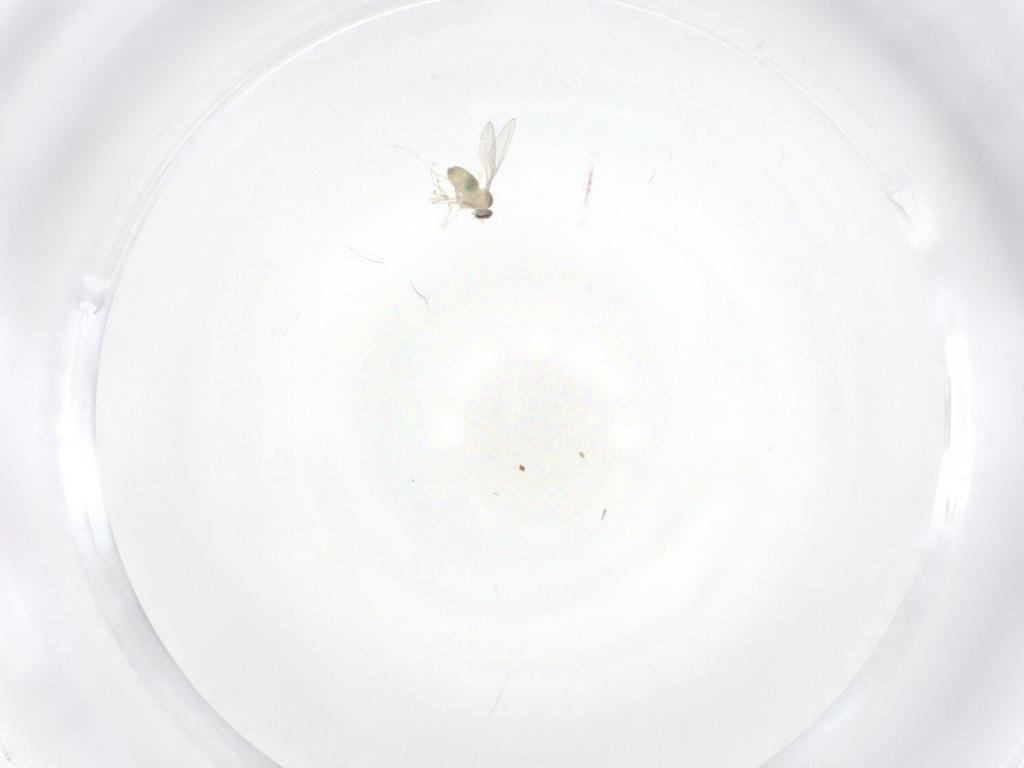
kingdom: Animalia
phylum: Arthropoda
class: Insecta
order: Diptera
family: Cecidomyiidae
